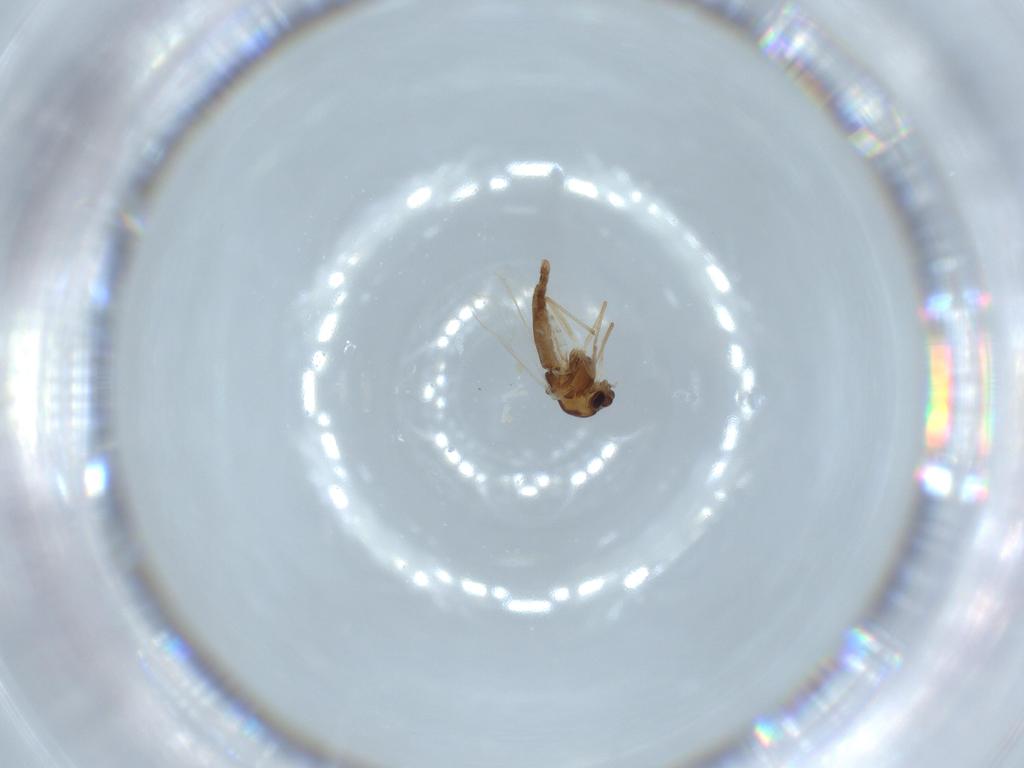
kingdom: Animalia
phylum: Arthropoda
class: Insecta
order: Diptera
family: Chironomidae
